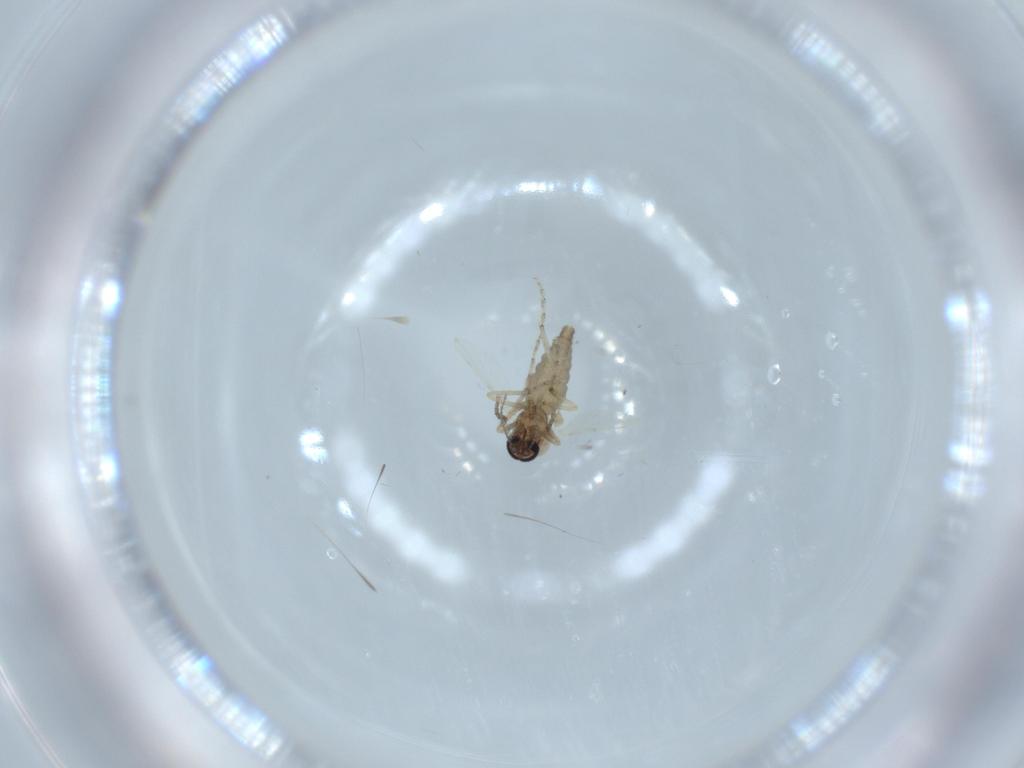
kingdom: Animalia
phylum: Arthropoda
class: Insecta
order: Diptera
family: Ceratopogonidae
